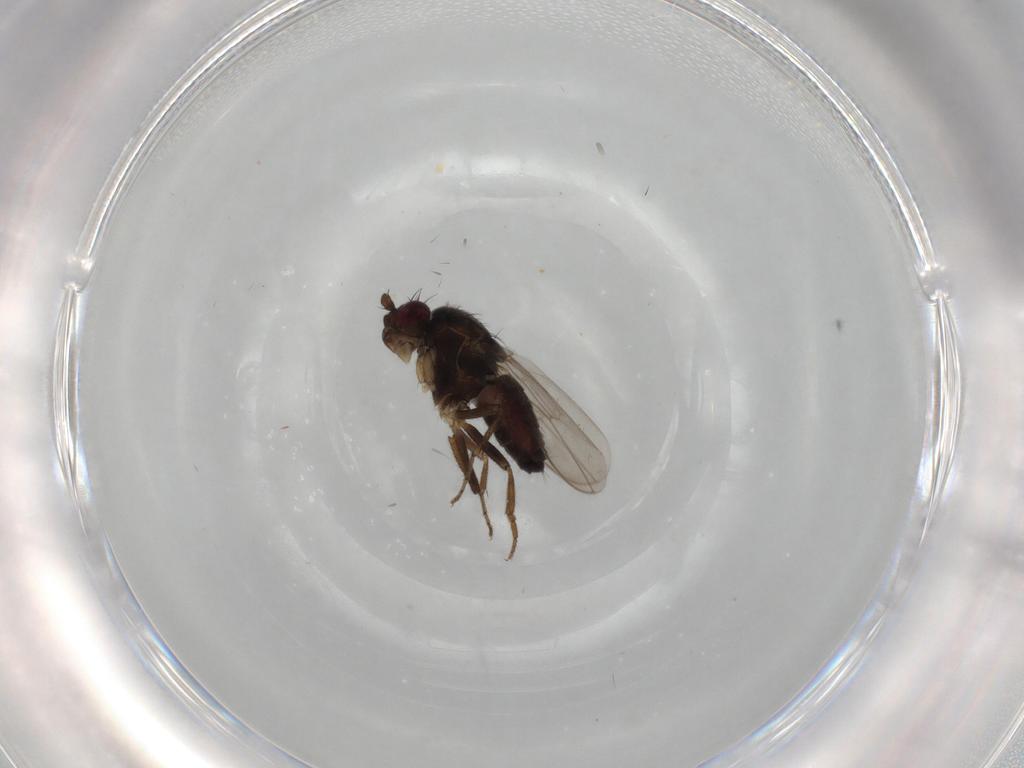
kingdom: Animalia
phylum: Arthropoda
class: Insecta
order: Diptera
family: Sphaeroceridae
